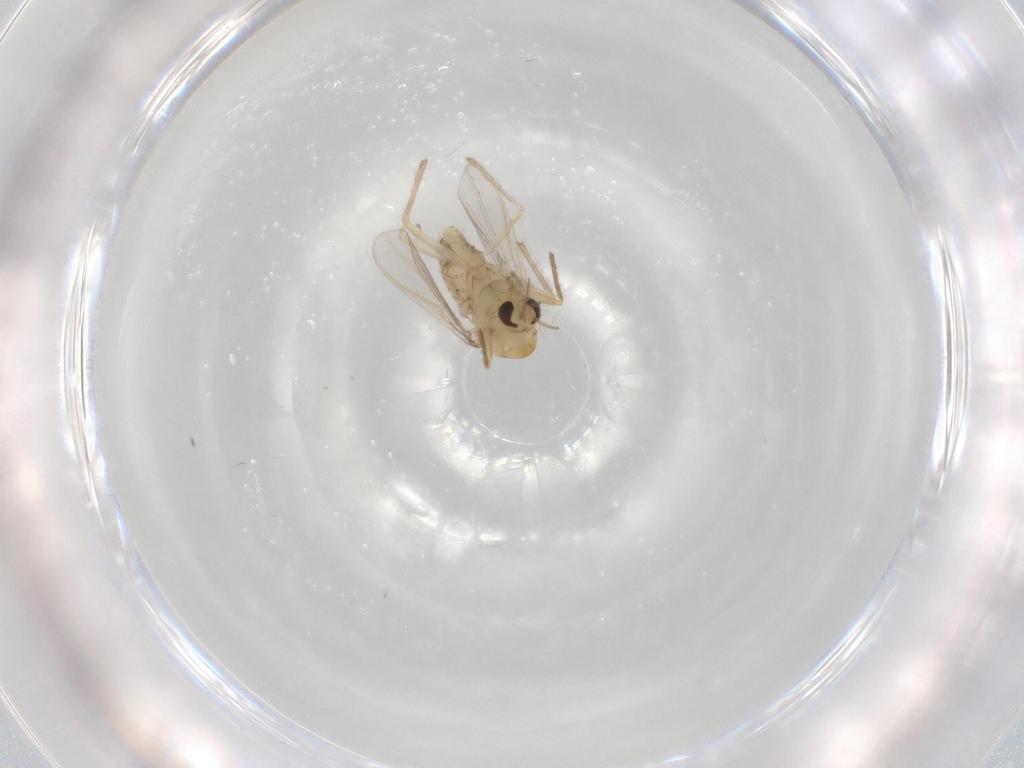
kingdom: Animalia
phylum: Arthropoda
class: Insecta
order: Diptera
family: Chironomidae
